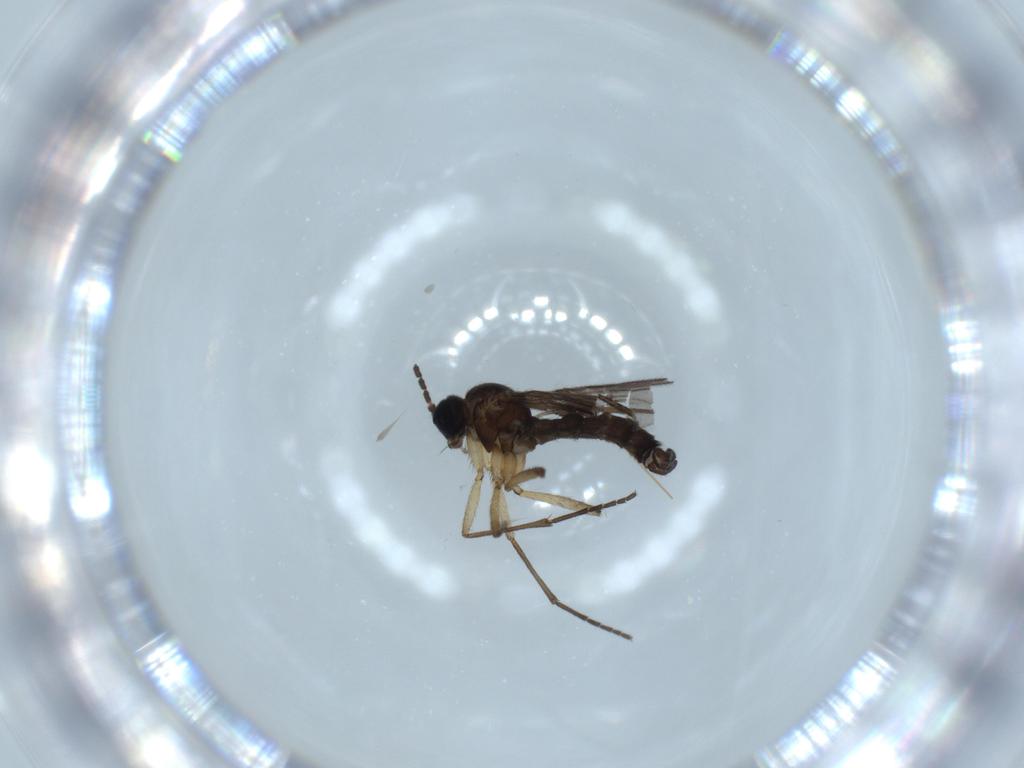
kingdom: Animalia
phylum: Arthropoda
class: Insecta
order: Diptera
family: Sciaridae
